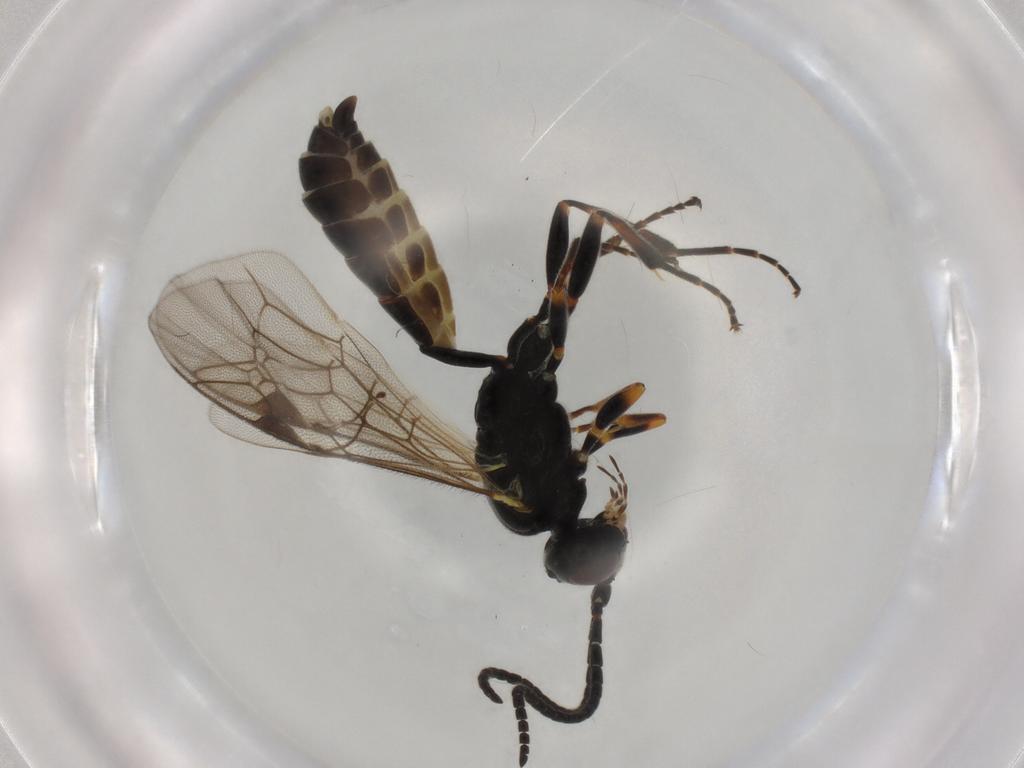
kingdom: Animalia
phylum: Arthropoda
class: Insecta
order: Hymenoptera
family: Ichneumonidae
